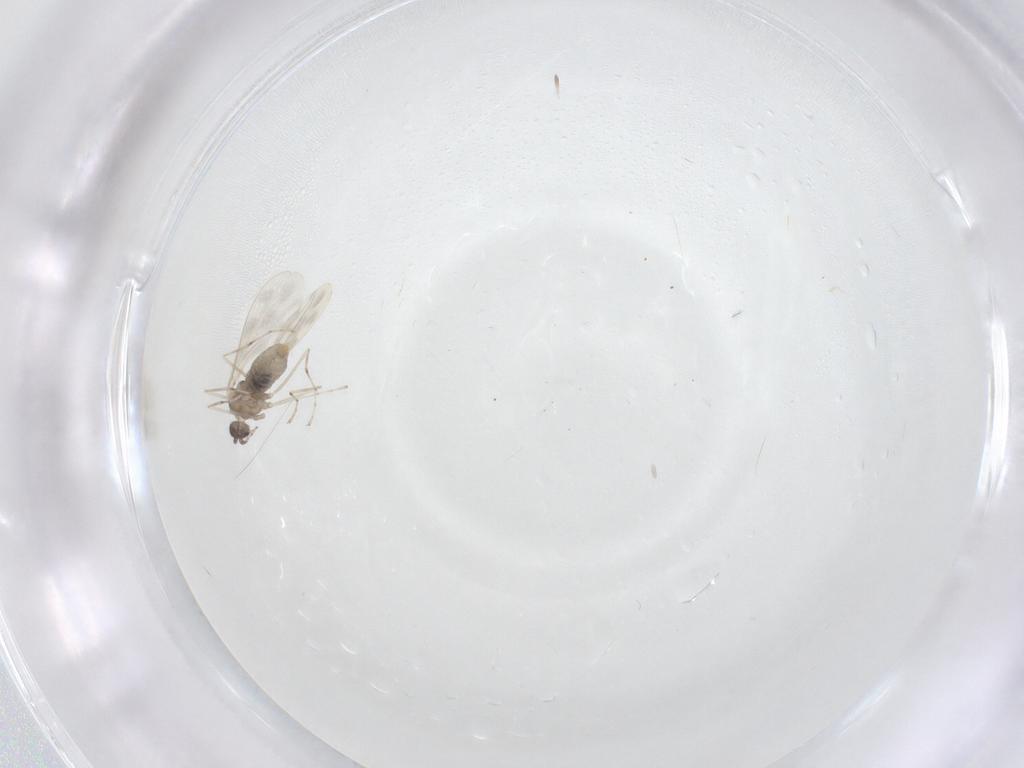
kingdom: Animalia
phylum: Arthropoda
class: Insecta
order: Diptera
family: Cecidomyiidae
